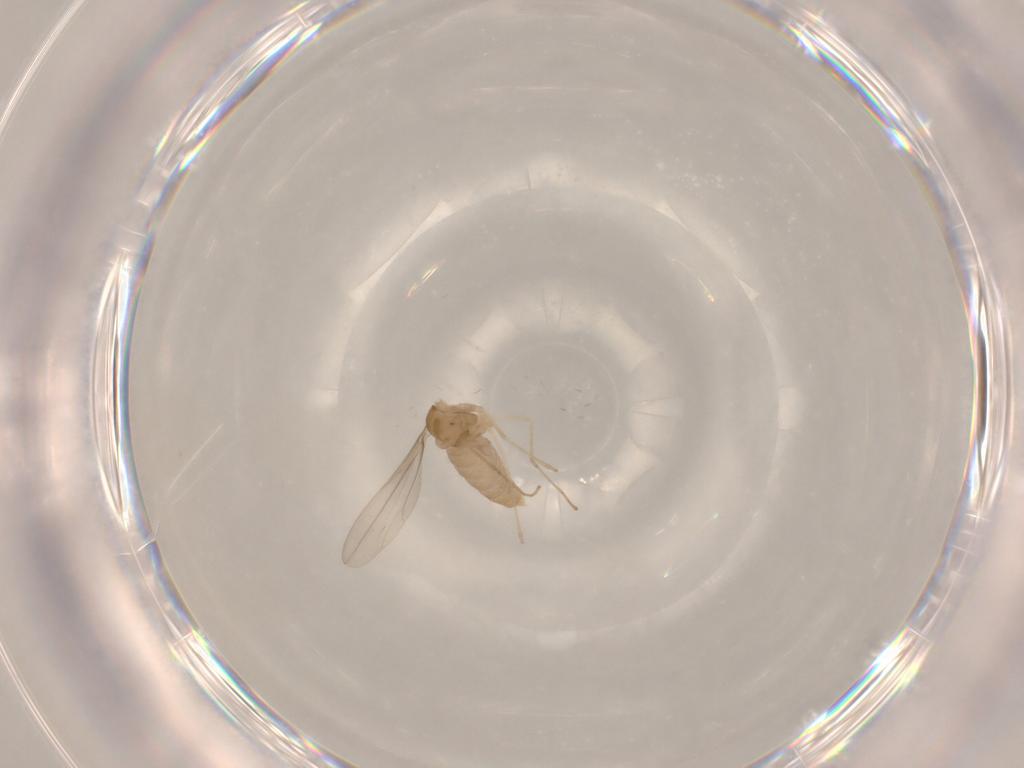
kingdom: Animalia
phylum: Arthropoda
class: Insecta
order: Diptera
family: Cecidomyiidae
